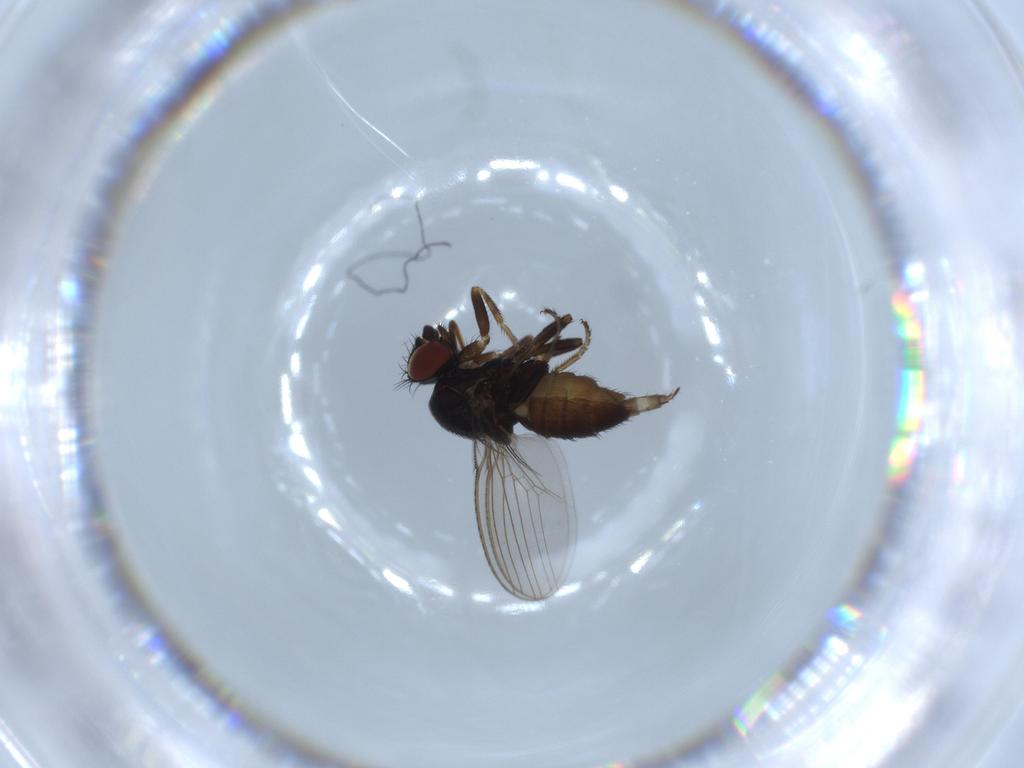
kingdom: Animalia
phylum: Arthropoda
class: Insecta
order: Diptera
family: Milichiidae
